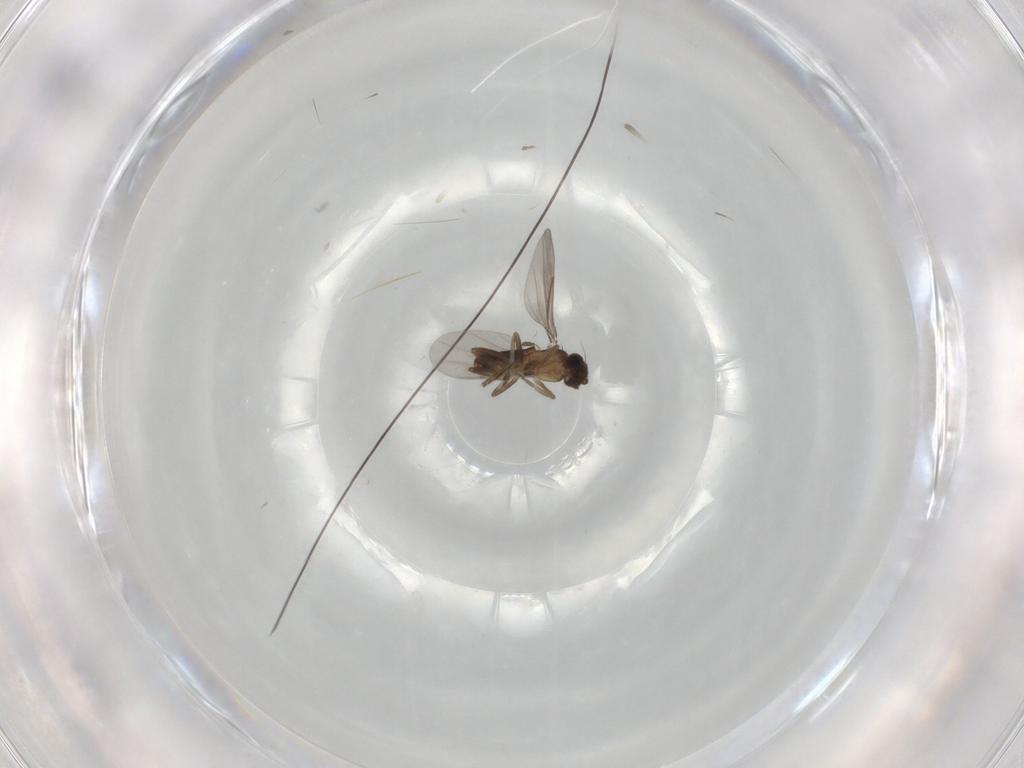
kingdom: Animalia
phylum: Arthropoda
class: Insecta
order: Diptera
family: Phoridae
